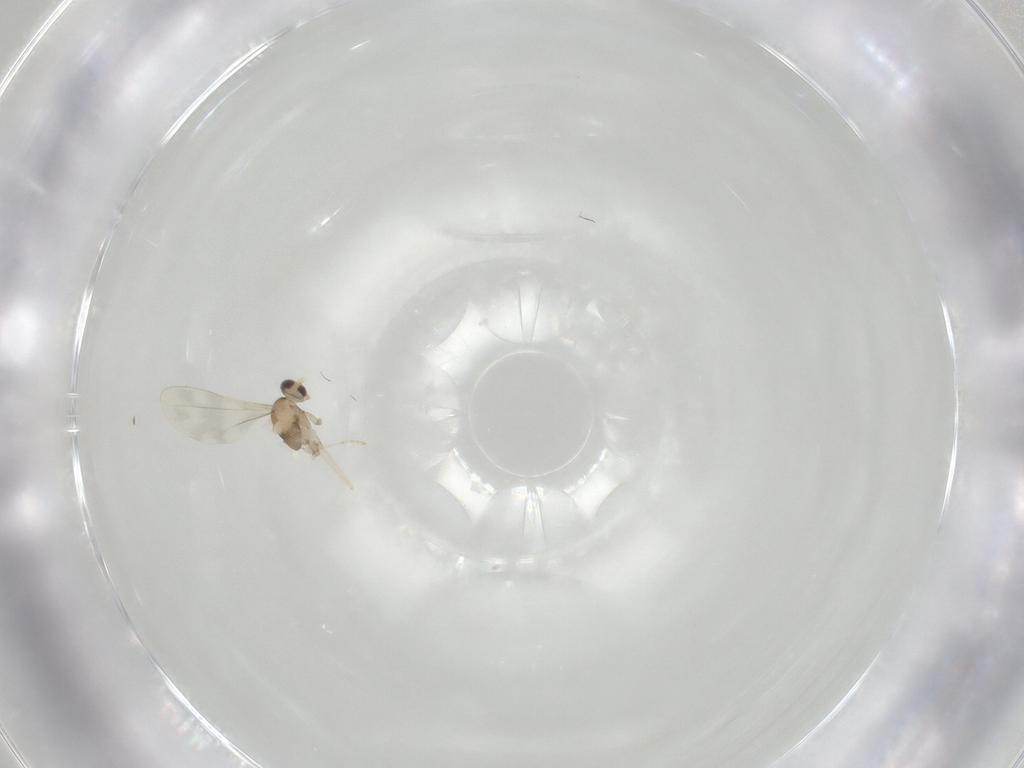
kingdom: Animalia
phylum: Arthropoda
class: Insecta
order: Diptera
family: Cecidomyiidae
